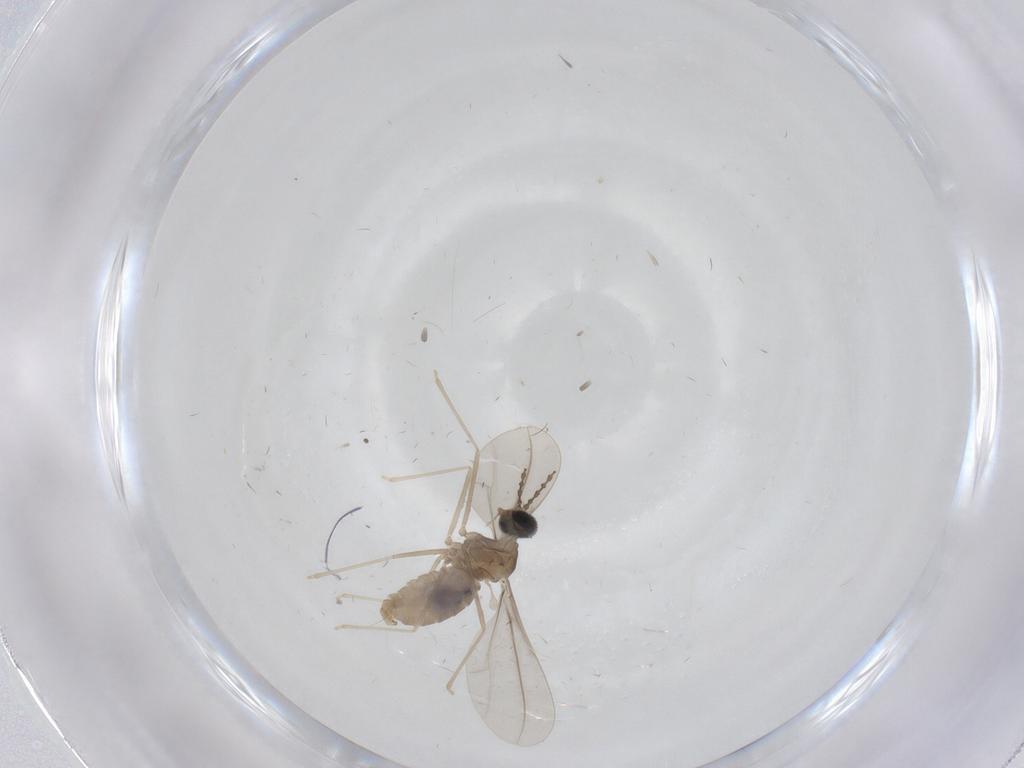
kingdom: Animalia
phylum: Arthropoda
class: Insecta
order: Diptera
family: Cecidomyiidae
